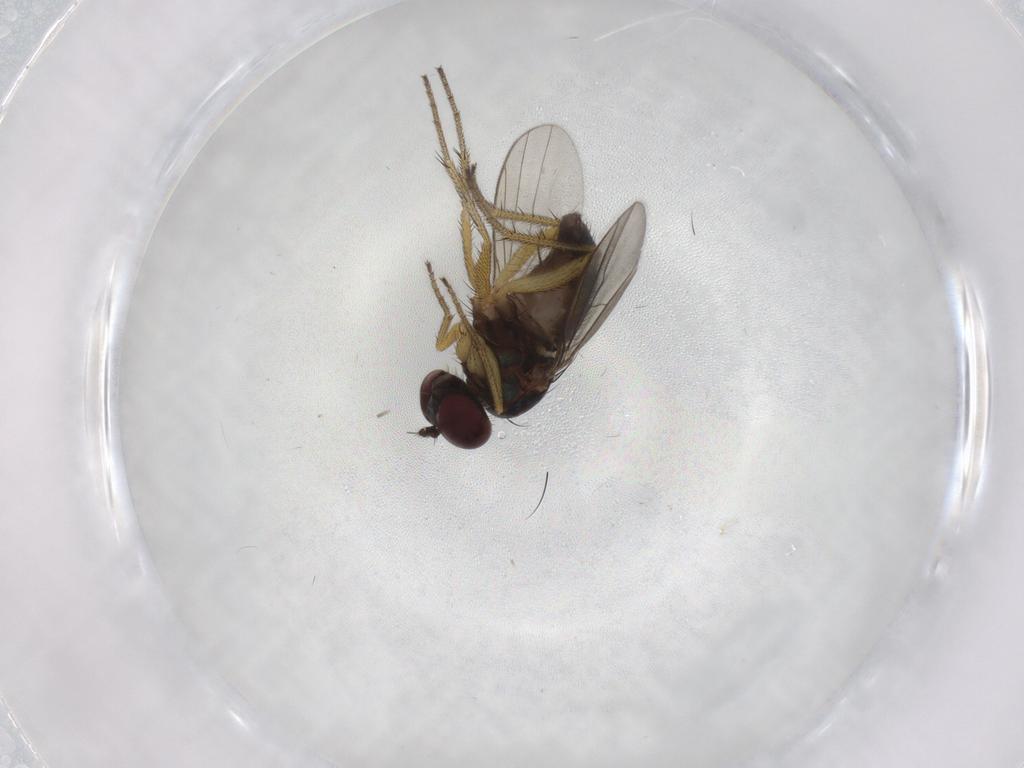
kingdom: Animalia
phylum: Arthropoda
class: Insecta
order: Diptera
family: Dolichopodidae
